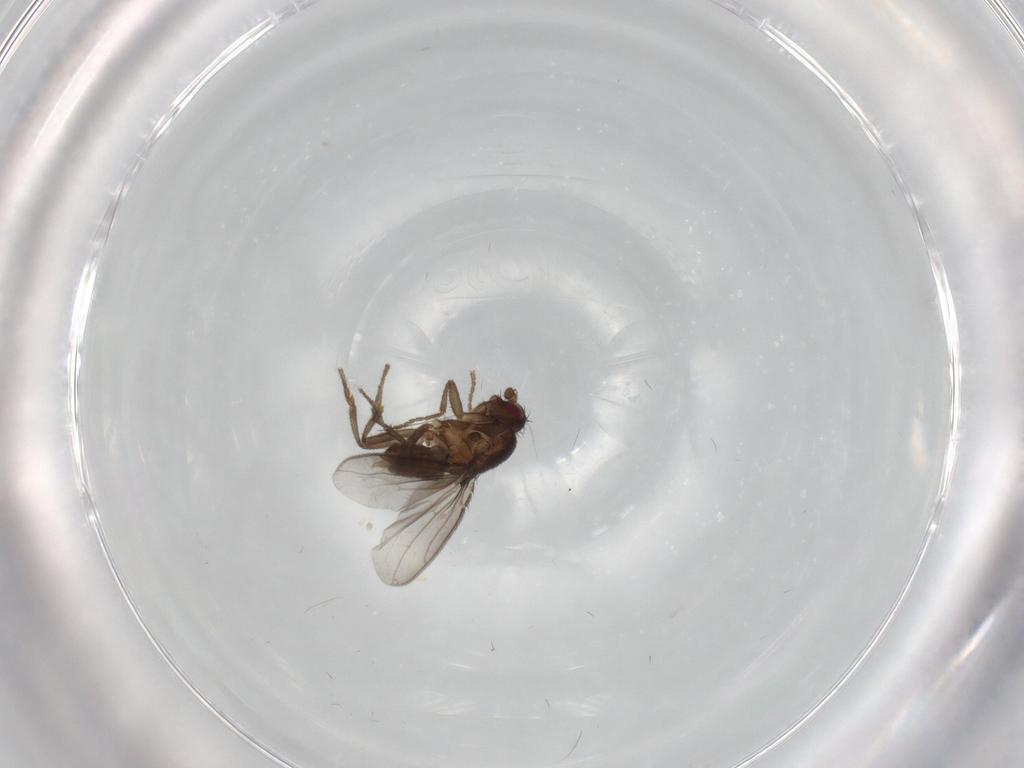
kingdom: Animalia
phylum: Arthropoda
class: Insecta
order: Diptera
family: Sphaeroceridae
